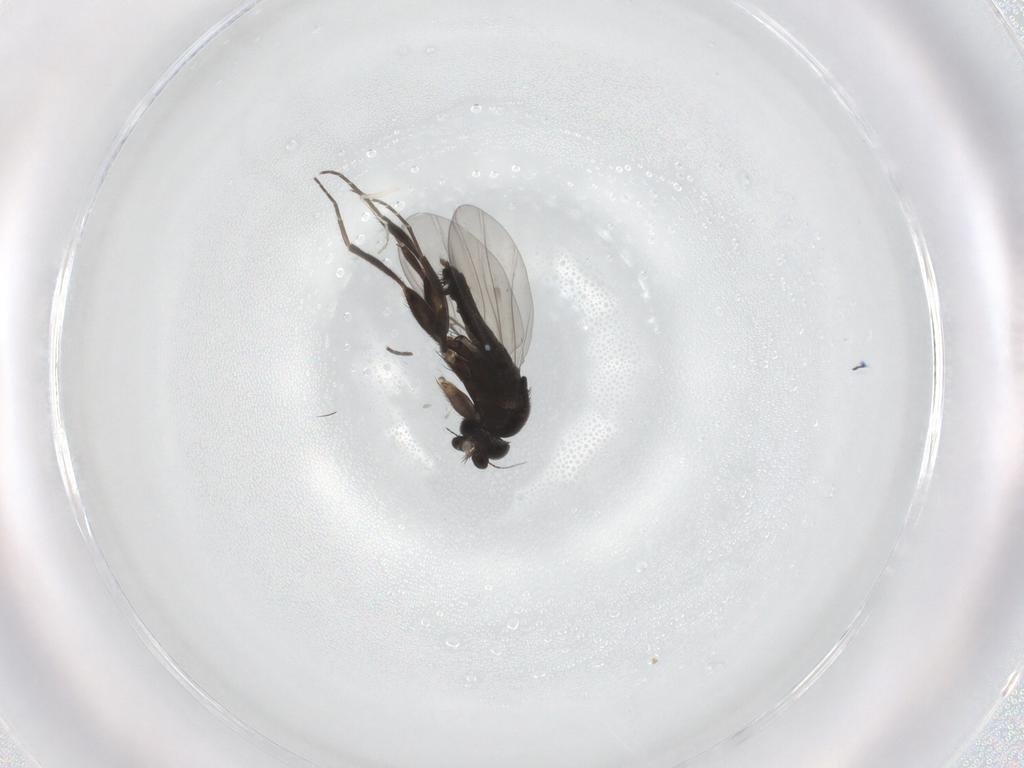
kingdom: Animalia
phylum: Arthropoda
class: Insecta
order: Diptera
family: Phoridae
